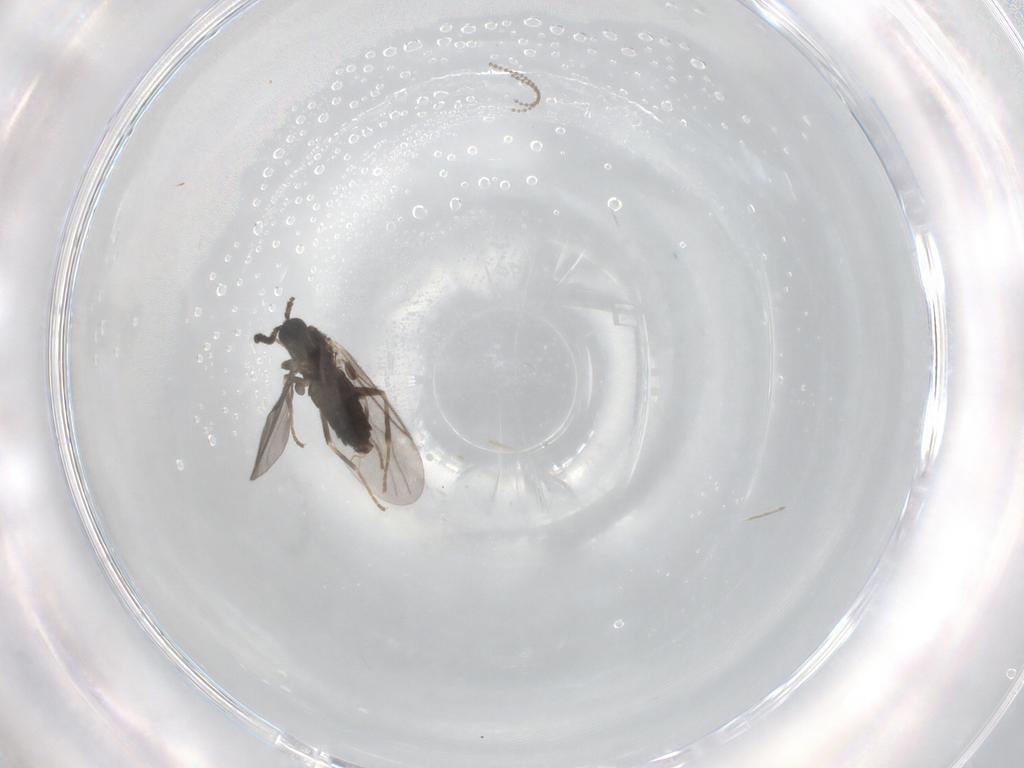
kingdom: Animalia
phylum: Arthropoda
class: Insecta
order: Diptera
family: Scatopsidae
